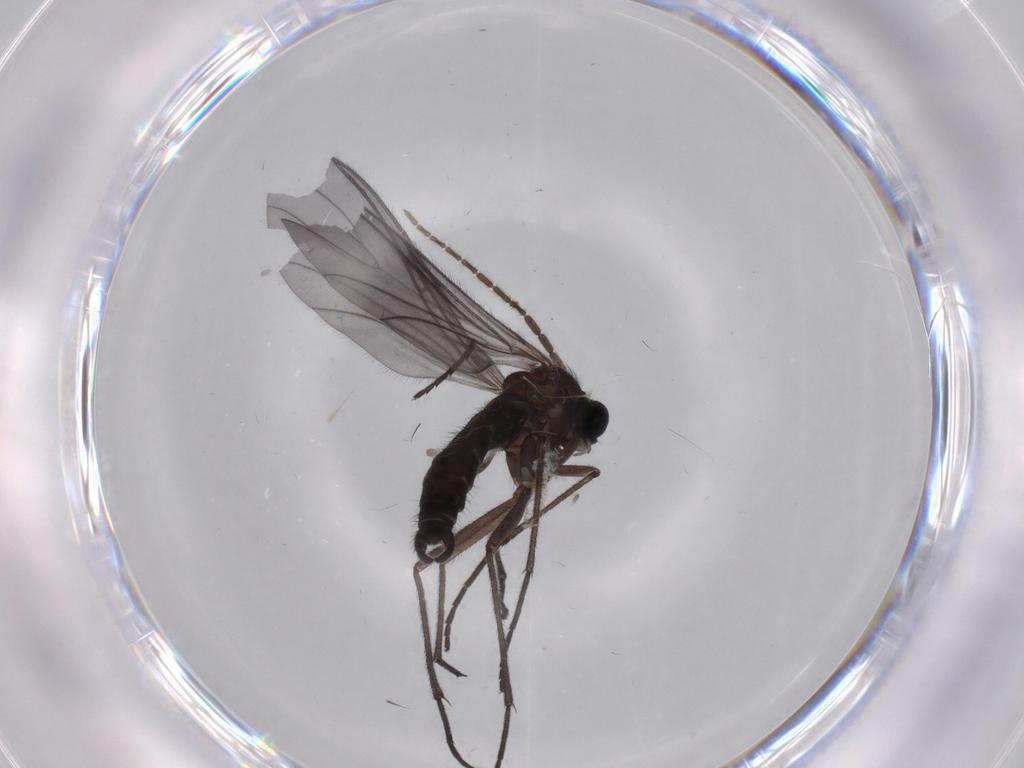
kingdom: Animalia
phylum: Arthropoda
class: Insecta
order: Diptera
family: Sciaridae
